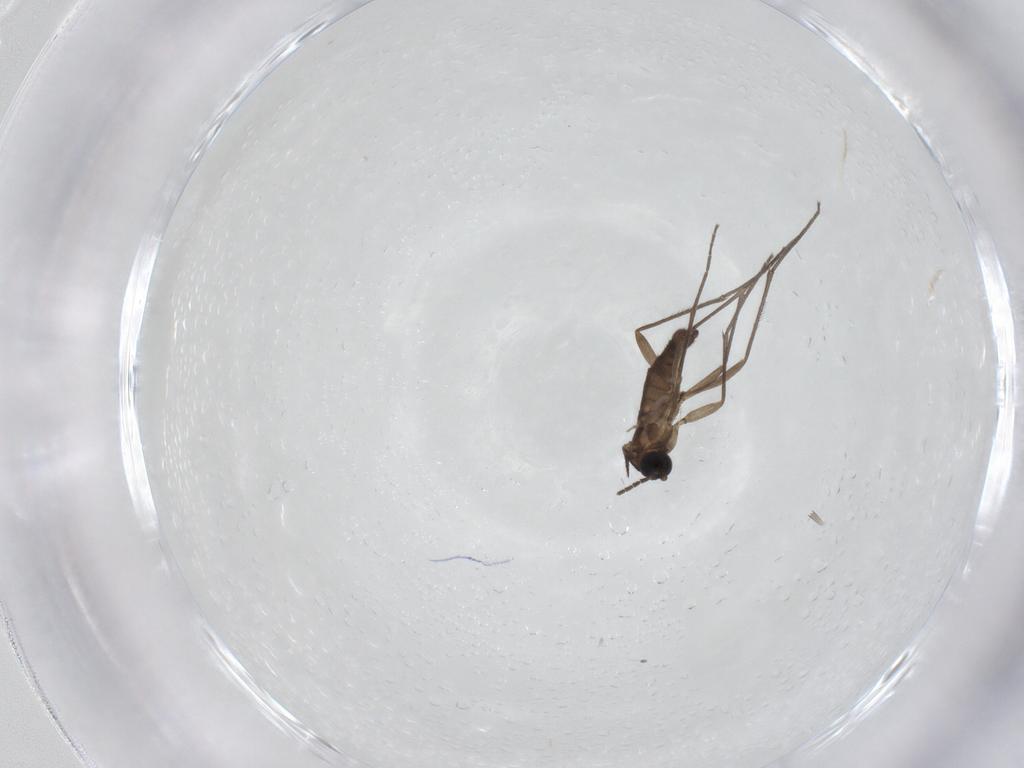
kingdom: Animalia
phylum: Arthropoda
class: Insecta
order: Diptera
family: Sciaridae
